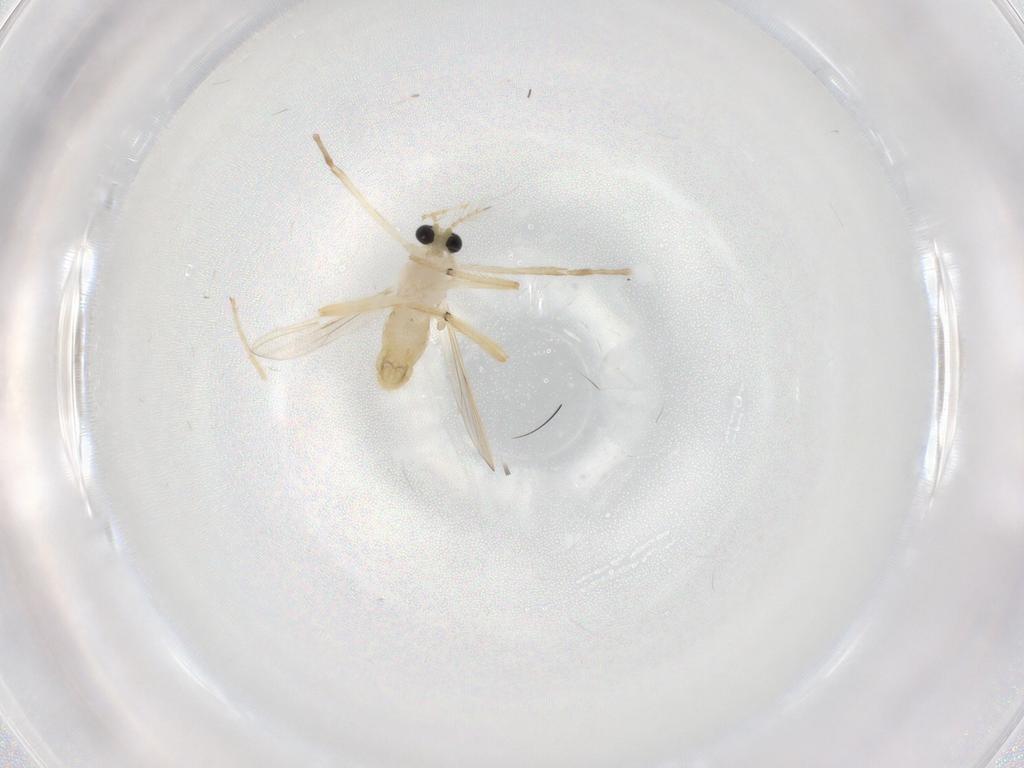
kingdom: Animalia
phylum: Arthropoda
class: Insecta
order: Diptera
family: Chironomidae
